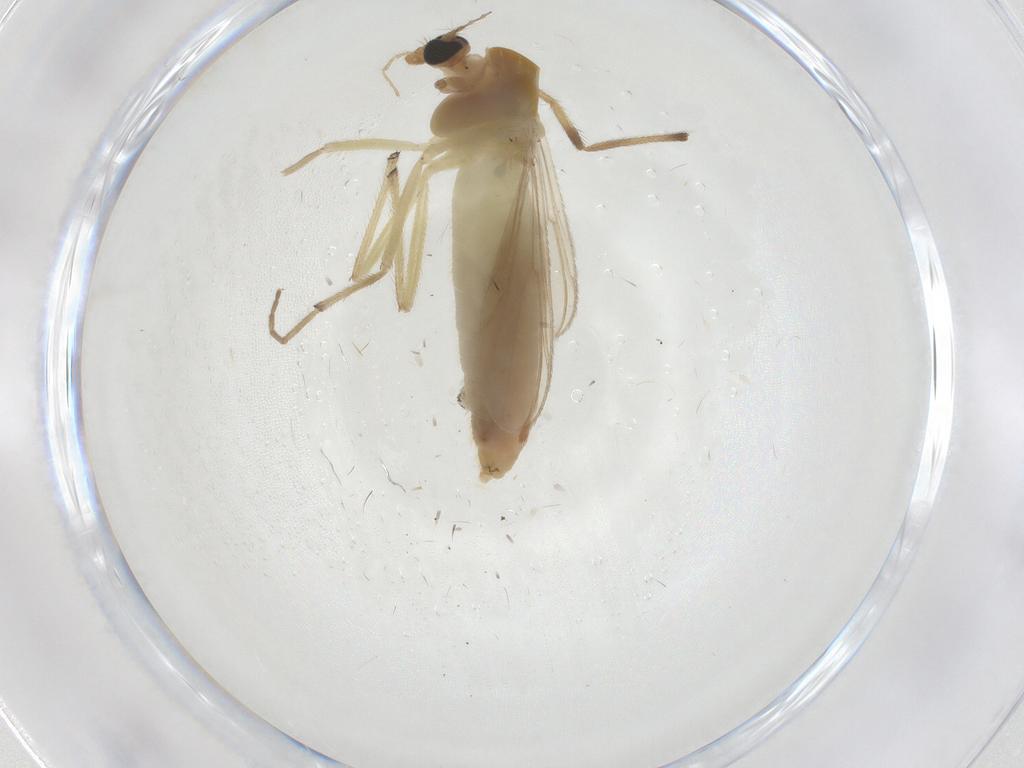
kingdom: Animalia
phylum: Arthropoda
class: Insecta
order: Diptera
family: Chironomidae
